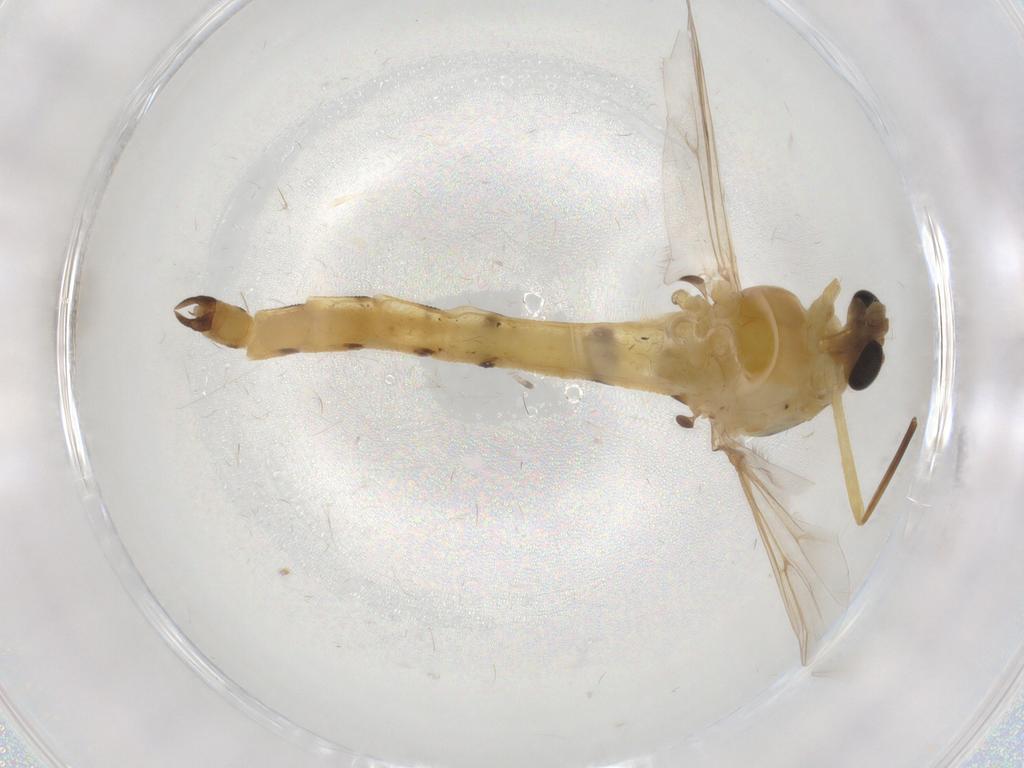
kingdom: Animalia
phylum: Arthropoda
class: Insecta
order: Diptera
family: Chironomidae
